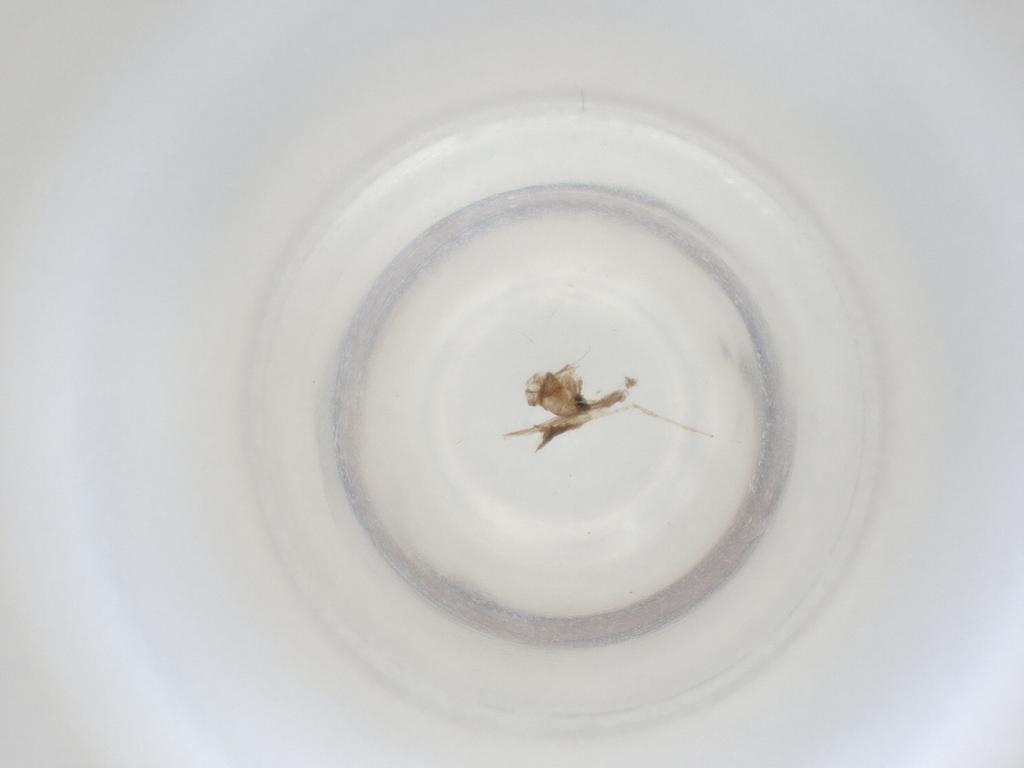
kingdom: Animalia
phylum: Arthropoda
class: Insecta
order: Diptera
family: Cecidomyiidae
